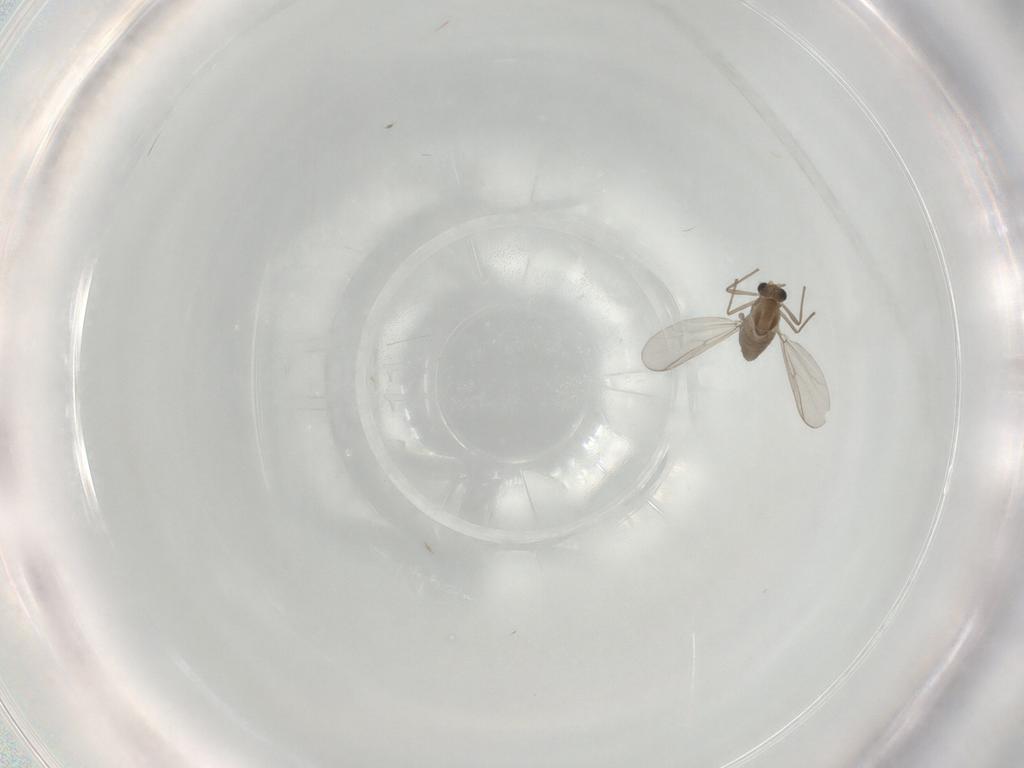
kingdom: Animalia
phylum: Arthropoda
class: Insecta
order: Diptera
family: Chironomidae
